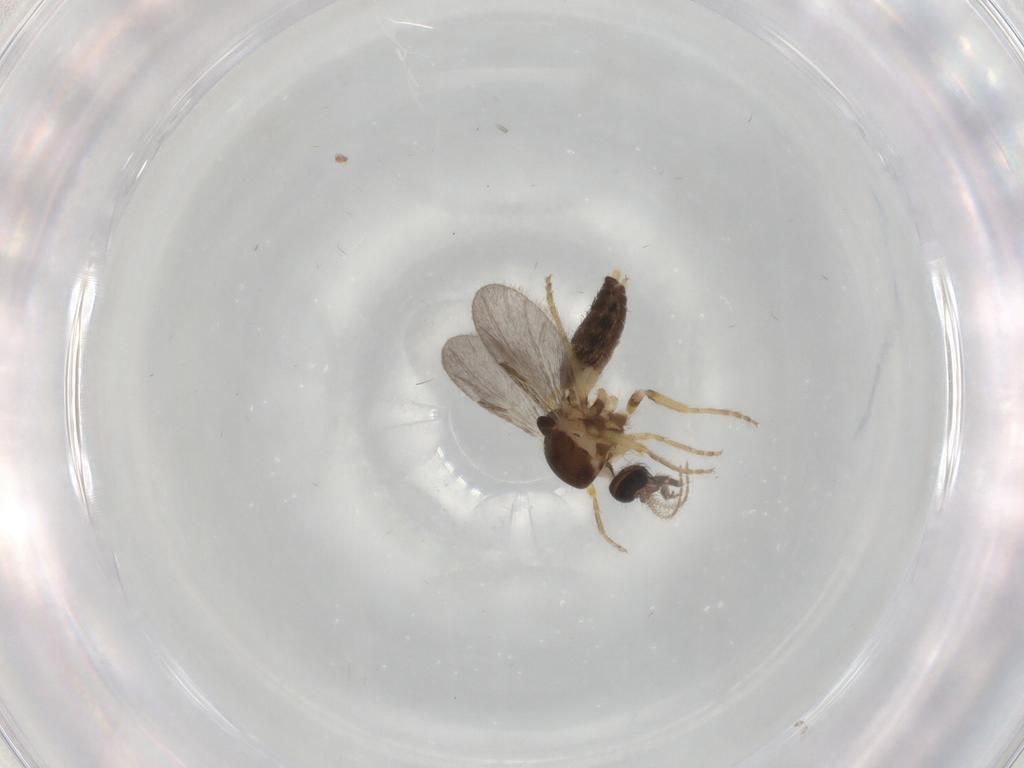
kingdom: Animalia
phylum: Arthropoda
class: Insecta
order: Diptera
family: Ceratopogonidae
